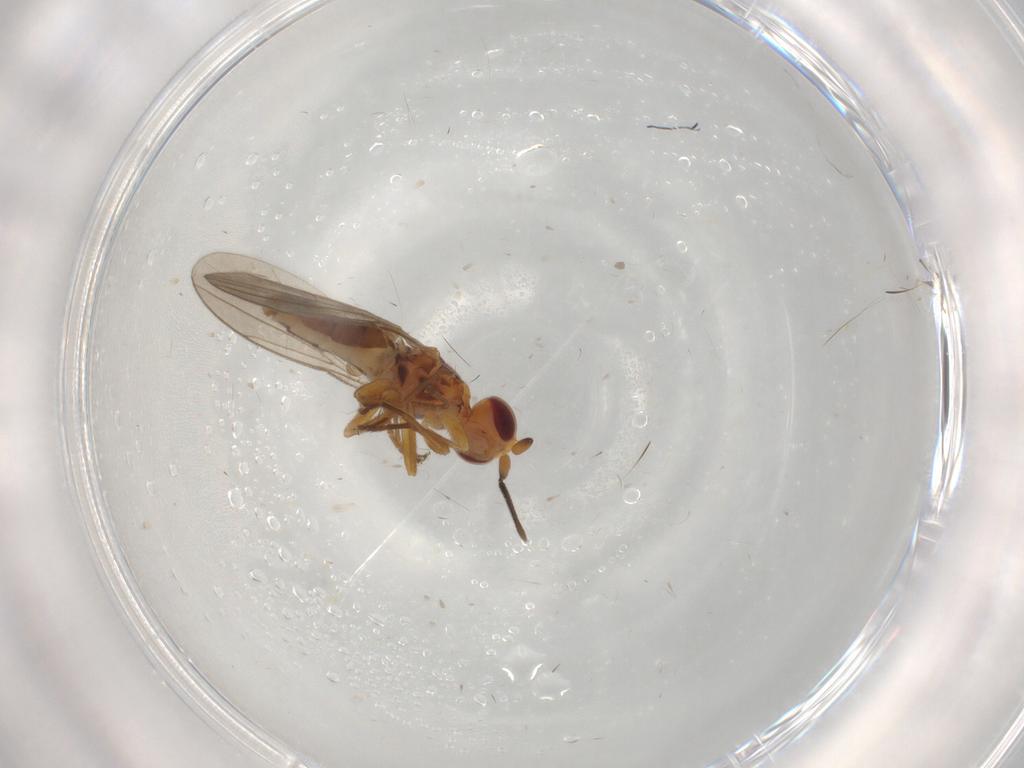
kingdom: Animalia
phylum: Arthropoda
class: Insecta
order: Diptera
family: Chloropidae
